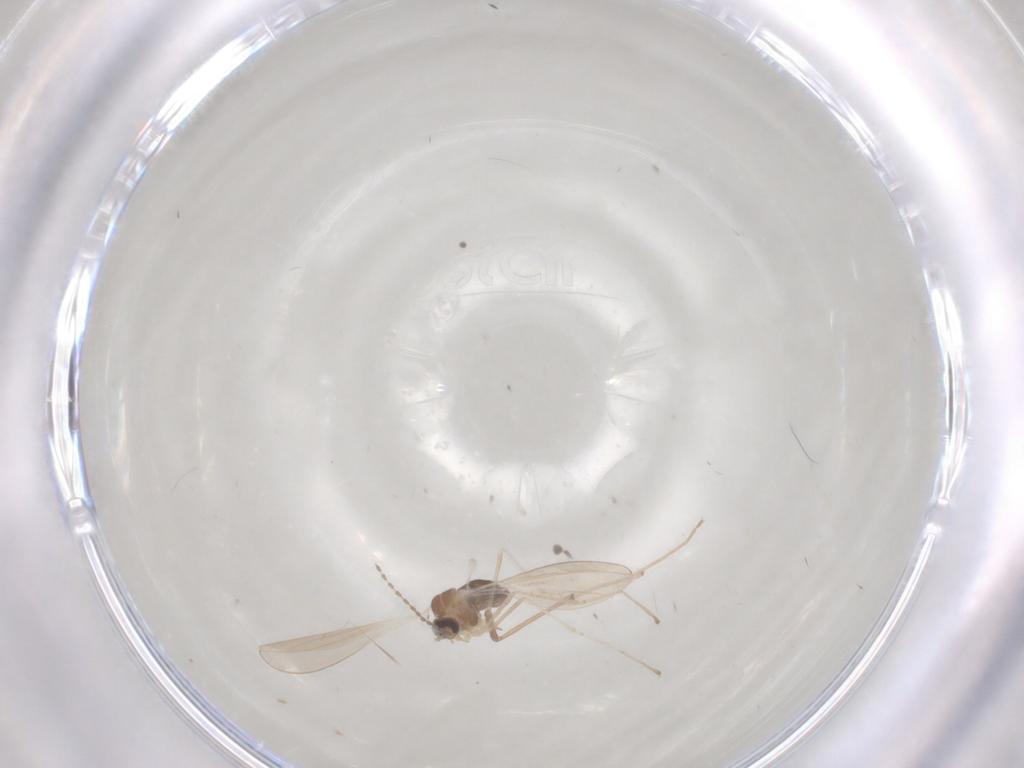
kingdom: Animalia
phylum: Arthropoda
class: Insecta
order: Diptera
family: Cecidomyiidae
